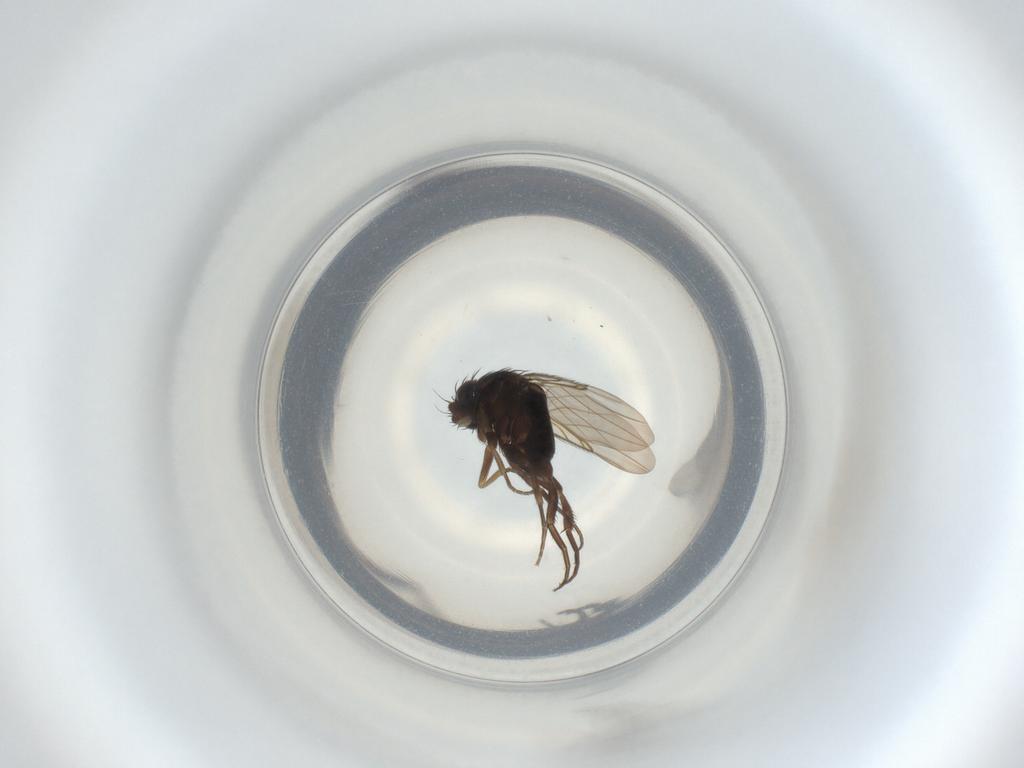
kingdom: Animalia
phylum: Arthropoda
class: Insecta
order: Diptera
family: Phoridae
